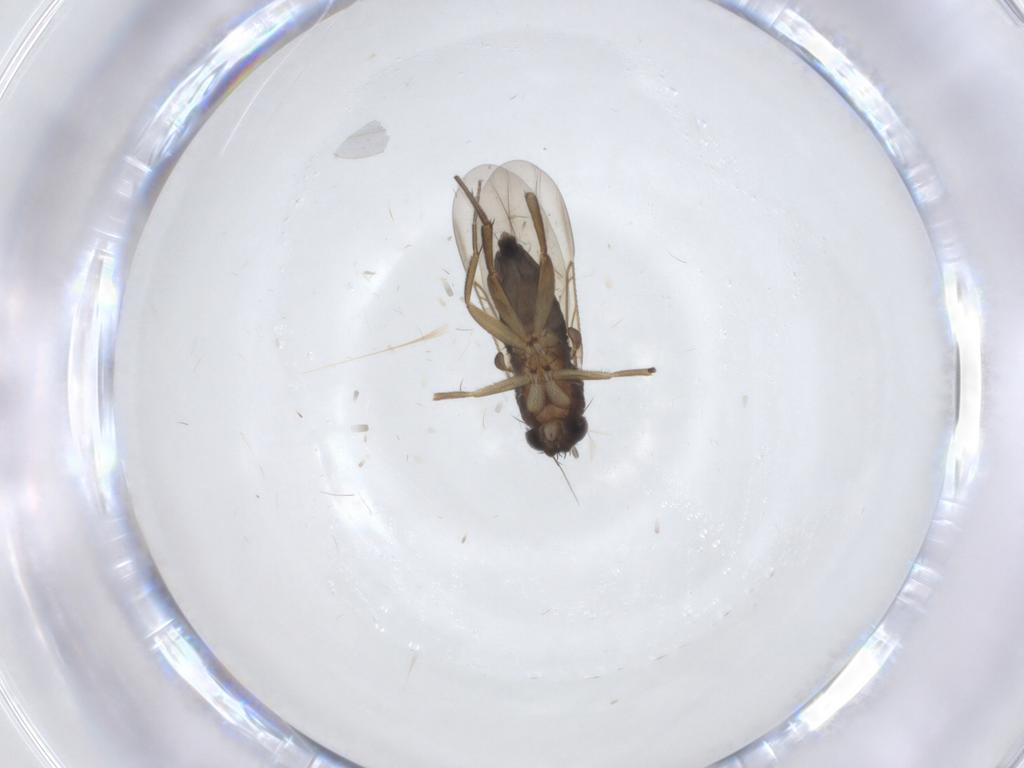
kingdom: Animalia
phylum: Arthropoda
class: Insecta
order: Diptera
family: Phoridae
